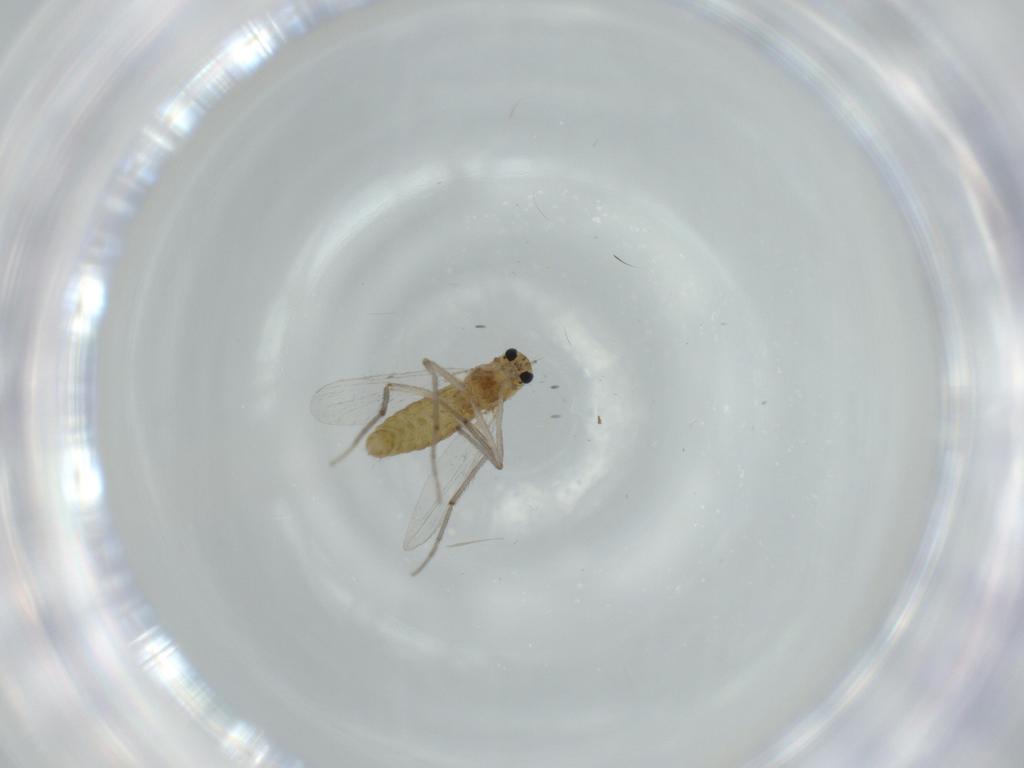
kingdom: Animalia
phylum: Arthropoda
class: Insecta
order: Diptera
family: Chironomidae
